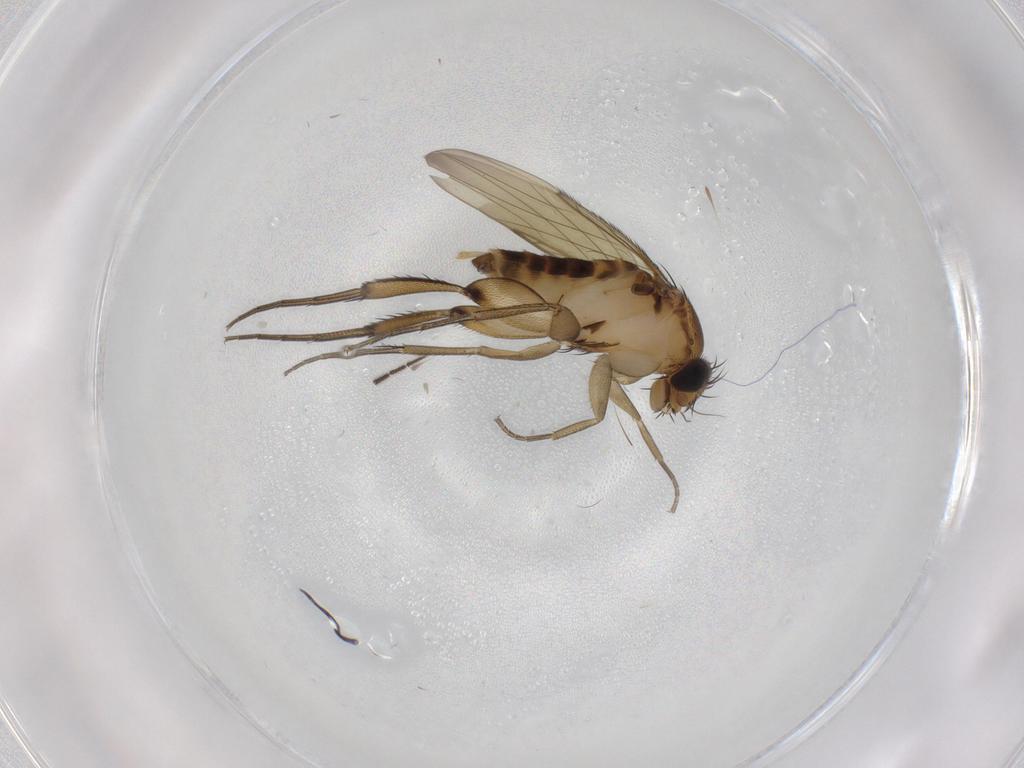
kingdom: Animalia
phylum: Arthropoda
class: Insecta
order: Diptera
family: Phoridae
